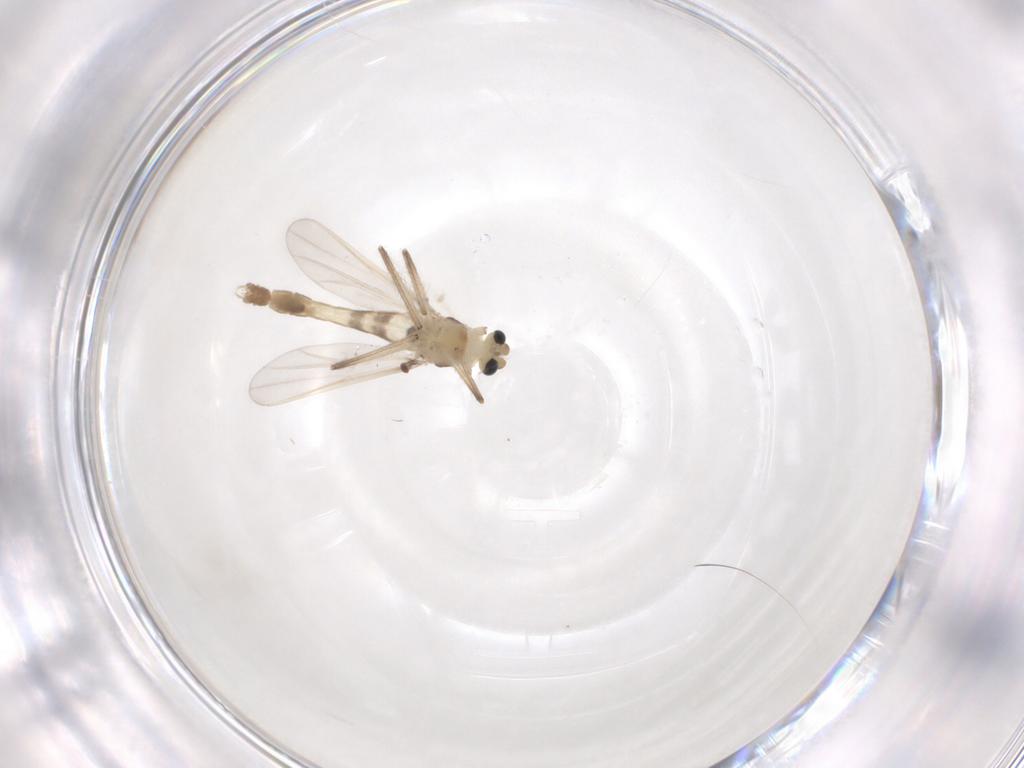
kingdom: Animalia
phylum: Arthropoda
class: Insecta
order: Diptera
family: Chironomidae
